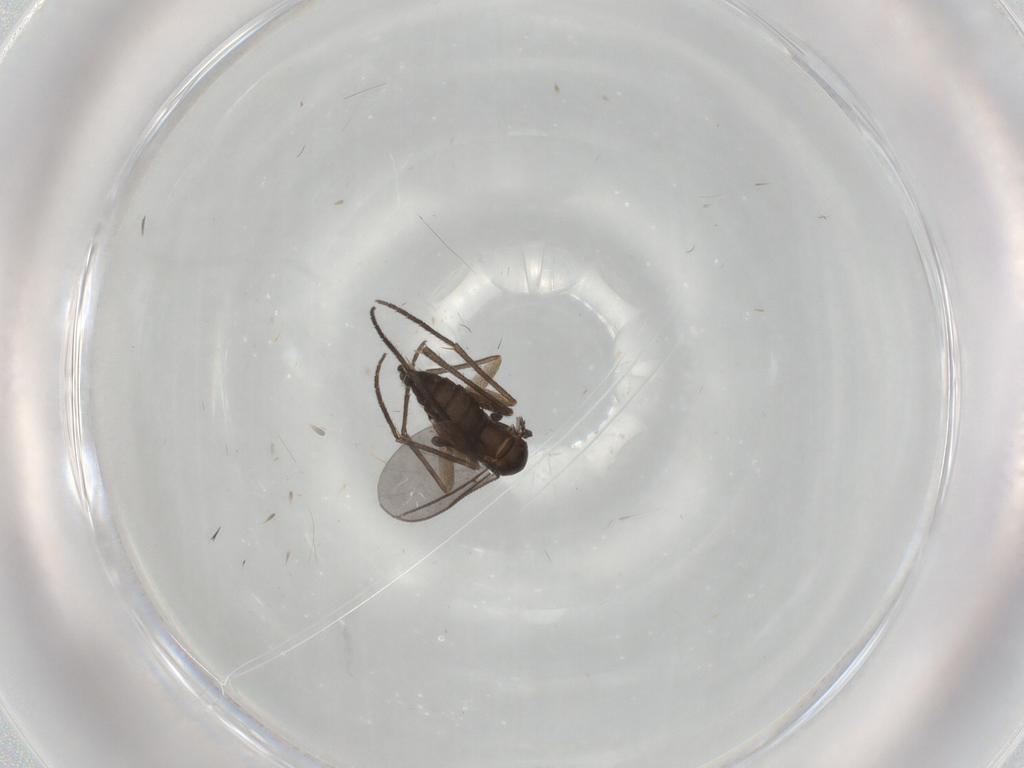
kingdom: Animalia
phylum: Arthropoda
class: Insecta
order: Diptera
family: Sciaridae
